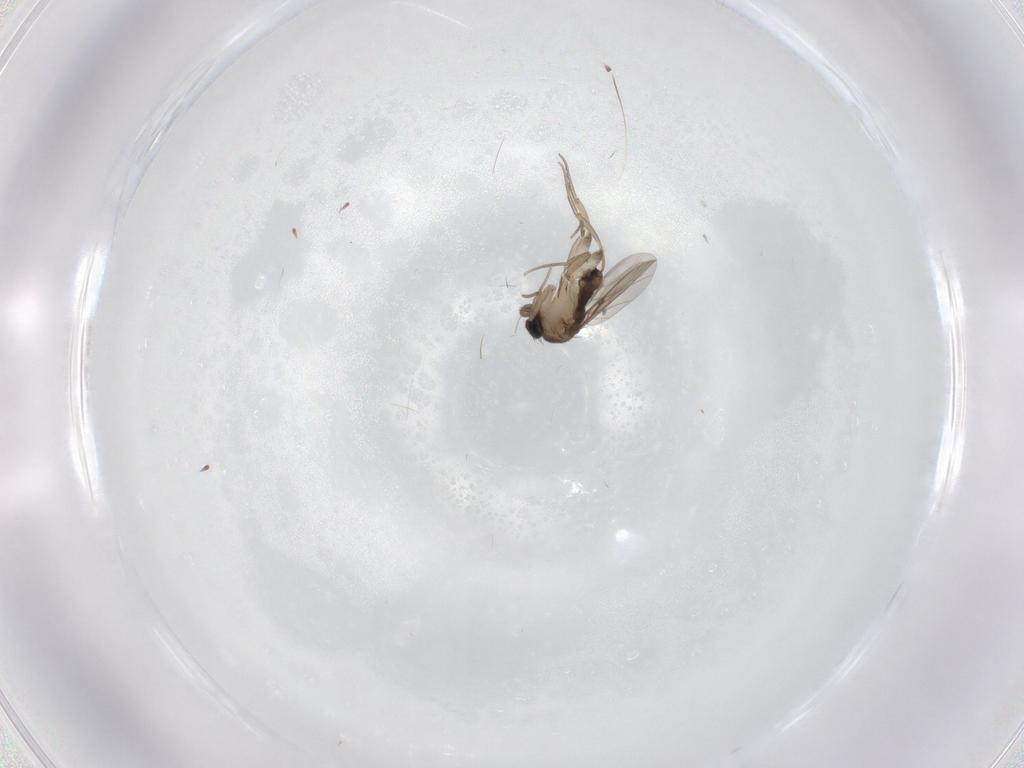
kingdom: Animalia
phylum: Arthropoda
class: Insecta
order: Diptera
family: Phoridae
